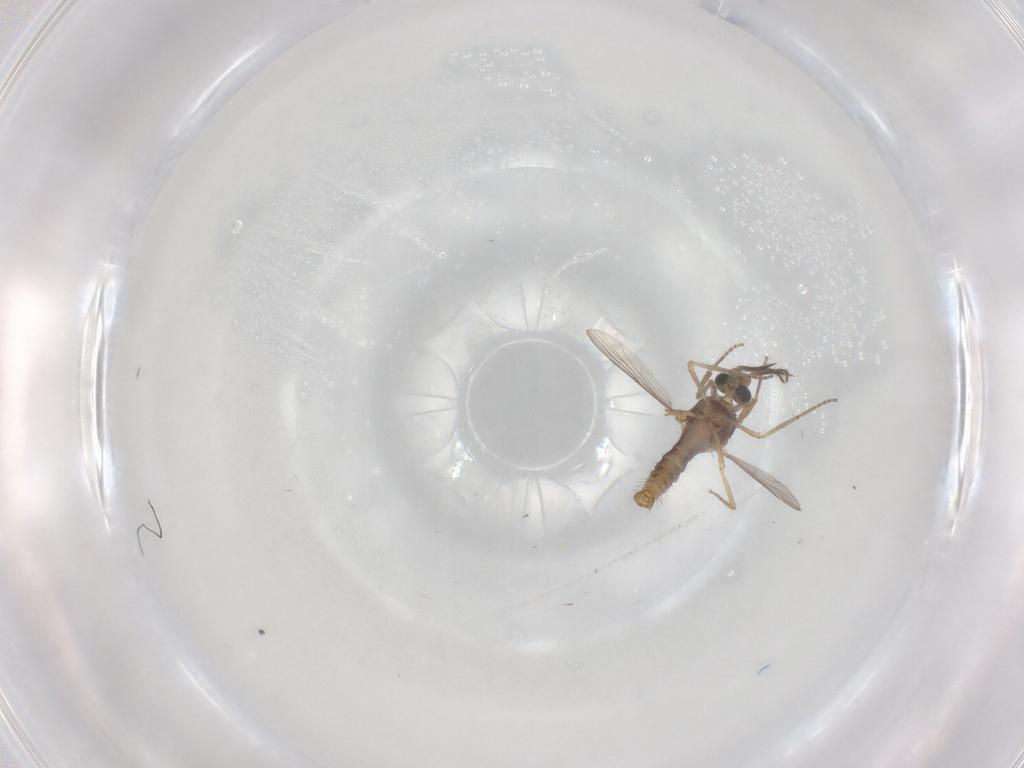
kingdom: Animalia
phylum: Arthropoda
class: Insecta
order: Diptera
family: Ceratopogonidae
